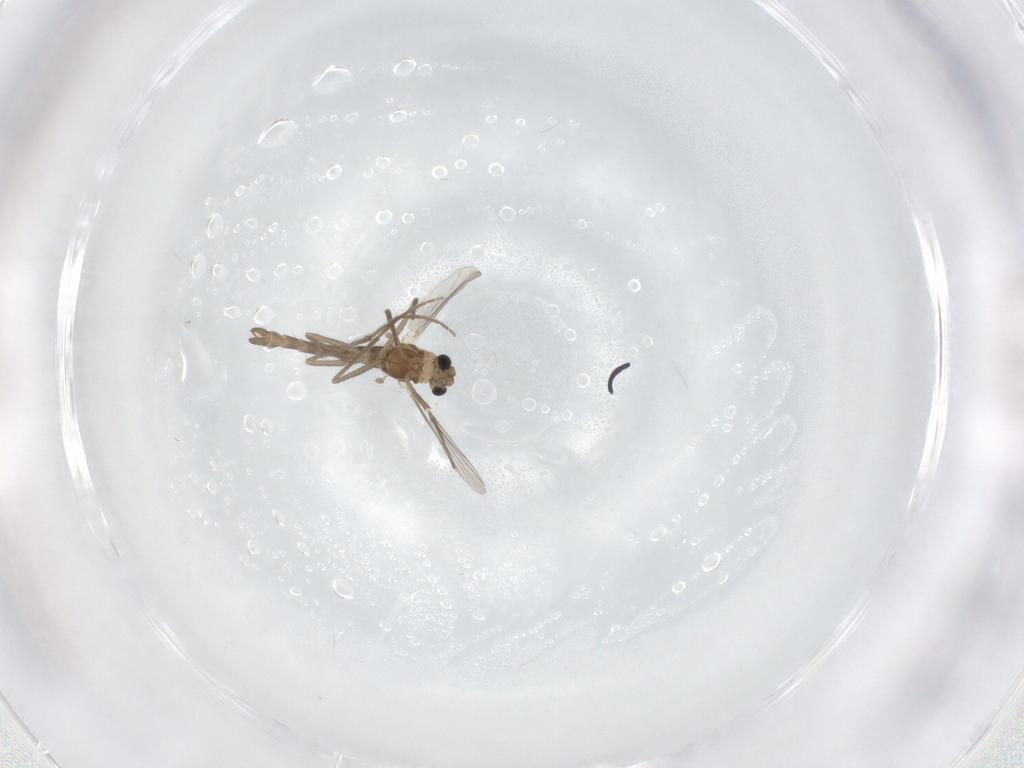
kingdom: Animalia
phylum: Arthropoda
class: Insecta
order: Diptera
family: Chironomidae
